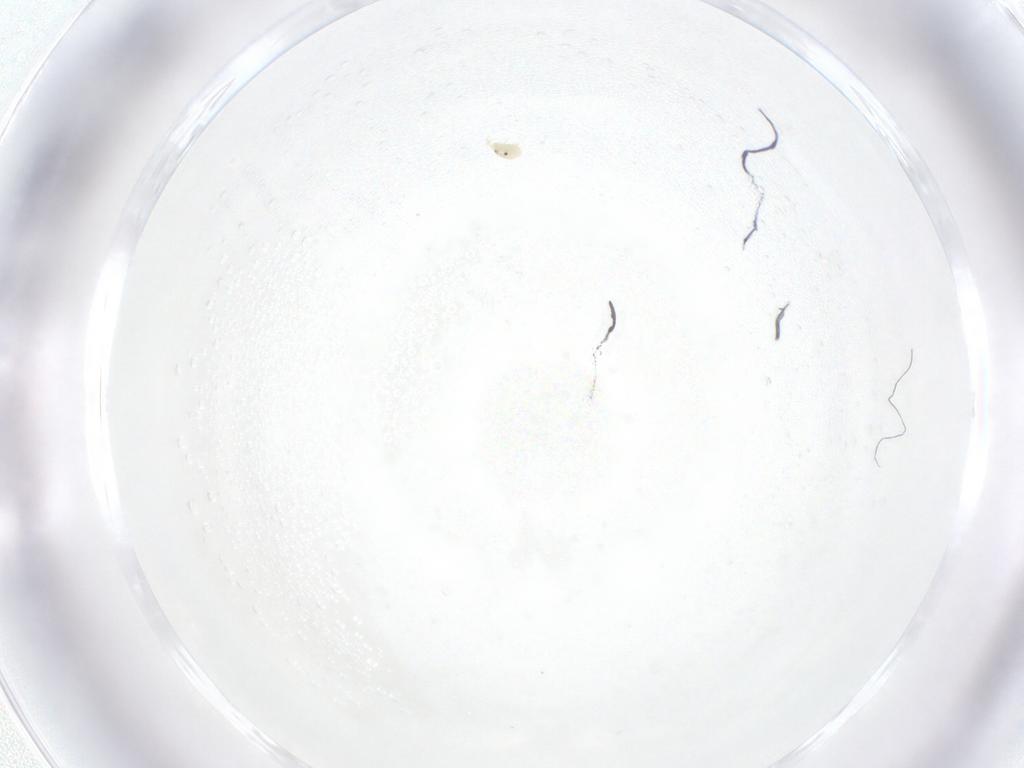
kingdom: Animalia
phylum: Arthropoda
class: Arachnida
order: Trombidiformes
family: Arrenuridae
